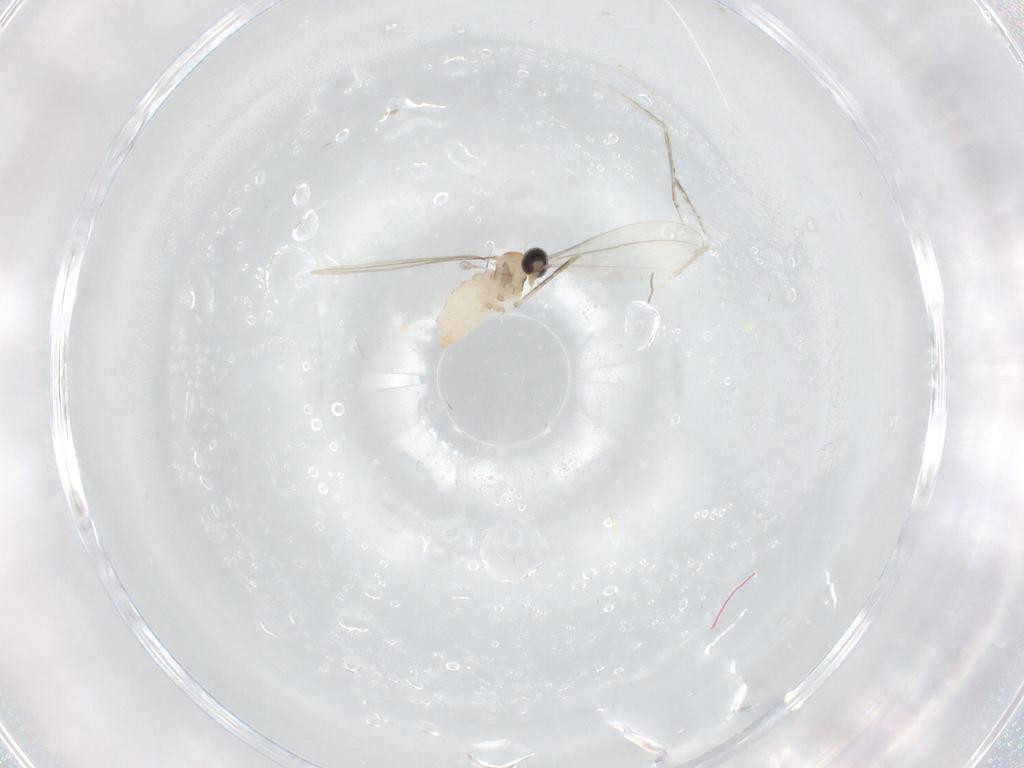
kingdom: Animalia
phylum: Arthropoda
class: Insecta
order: Diptera
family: Cecidomyiidae
